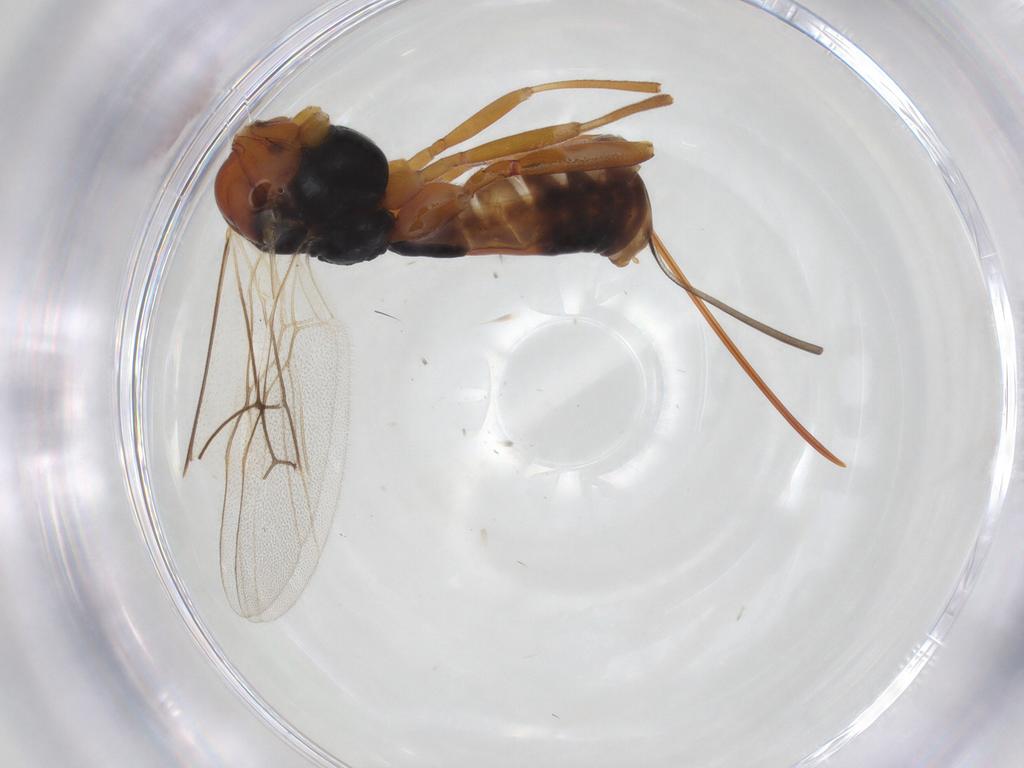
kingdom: Animalia
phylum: Arthropoda
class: Insecta
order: Hymenoptera
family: Braconidae
